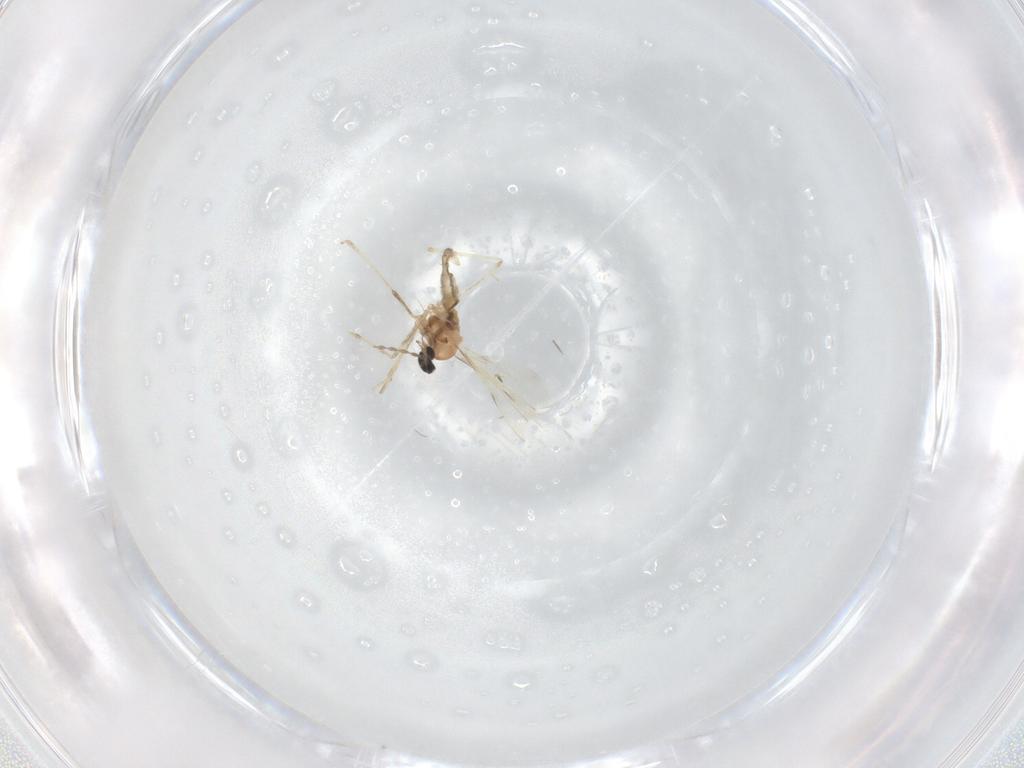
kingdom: Animalia
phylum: Arthropoda
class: Insecta
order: Diptera
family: Cecidomyiidae
